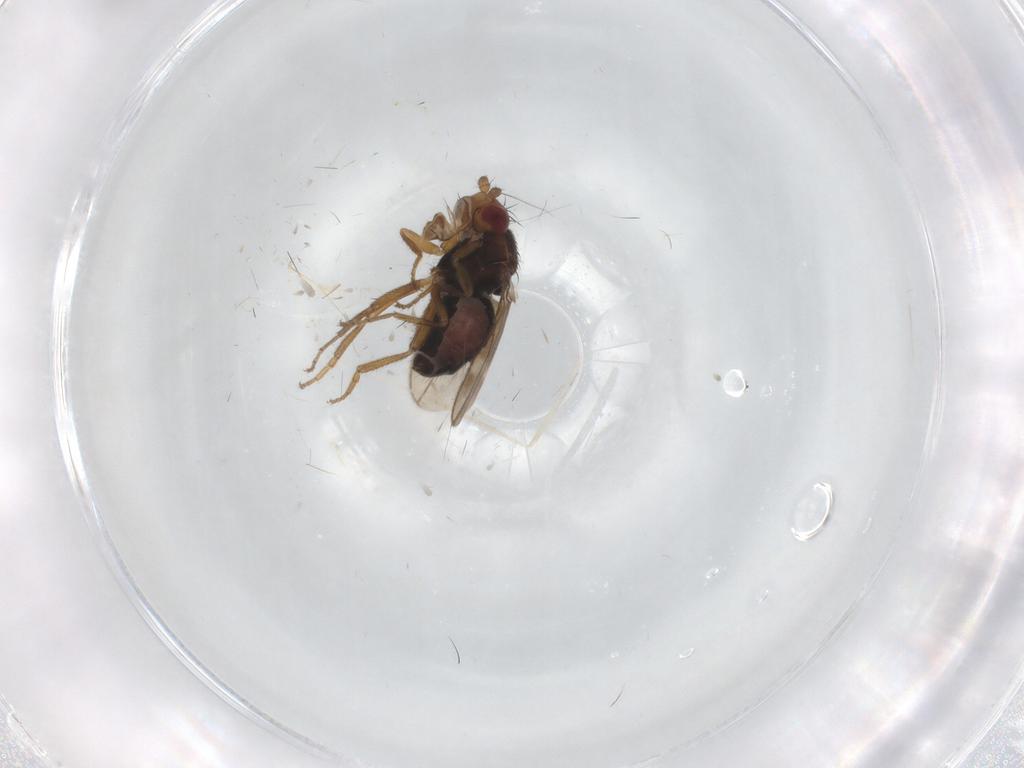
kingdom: Animalia
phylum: Arthropoda
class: Insecta
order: Diptera
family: Sphaeroceridae
